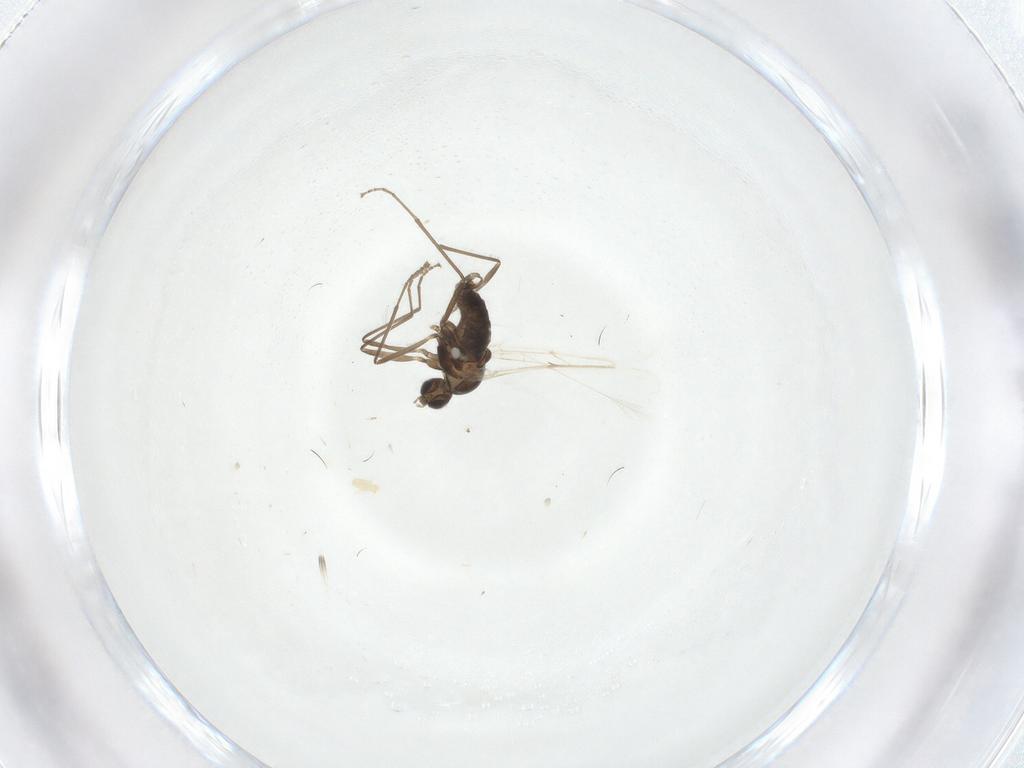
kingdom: Animalia
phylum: Arthropoda
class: Insecta
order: Diptera
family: Cecidomyiidae
